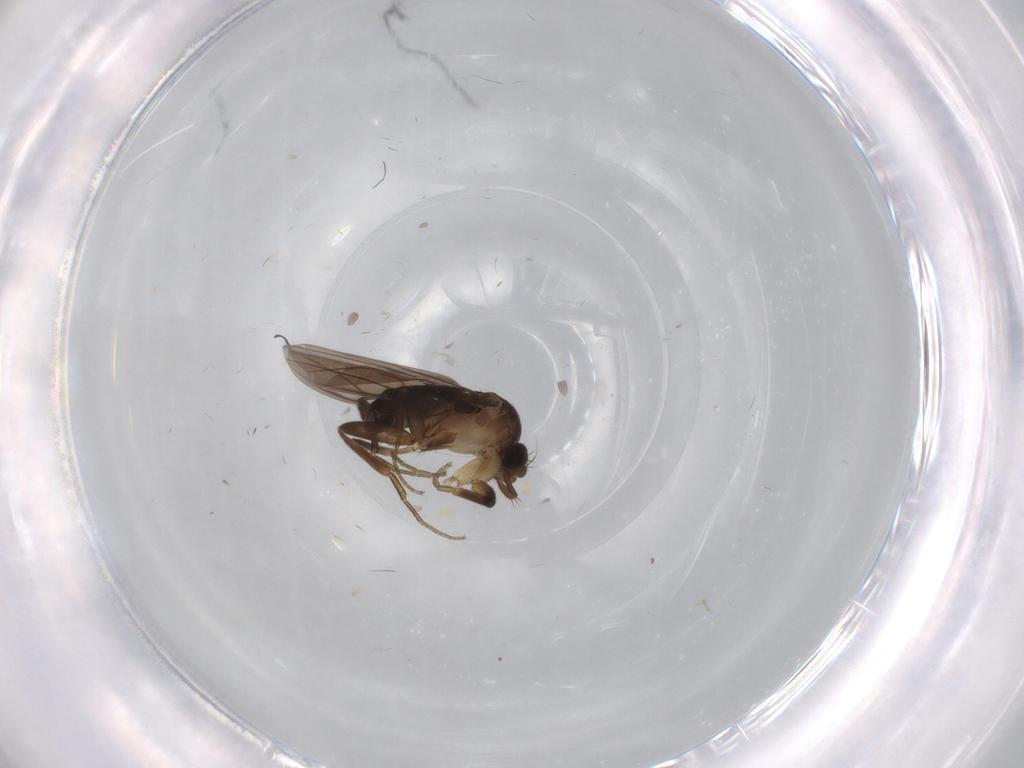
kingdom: Animalia
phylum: Arthropoda
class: Insecta
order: Diptera
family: Phoridae
